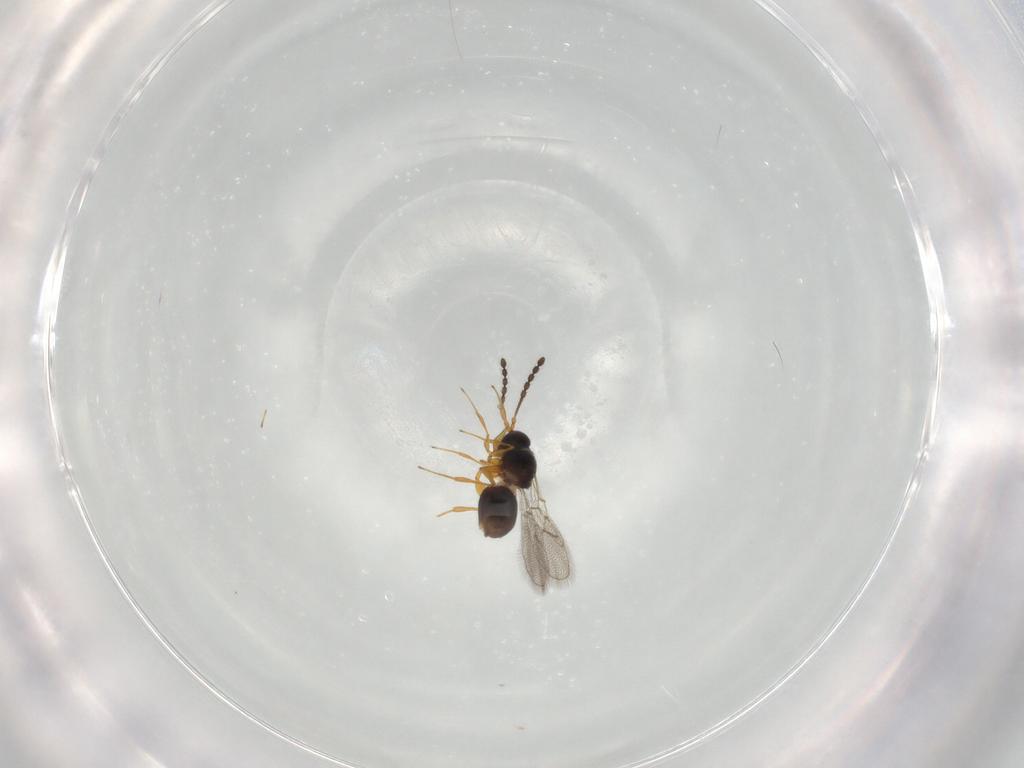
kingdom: Animalia
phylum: Arthropoda
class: Insecta
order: Hymenoptera
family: Figitidae
